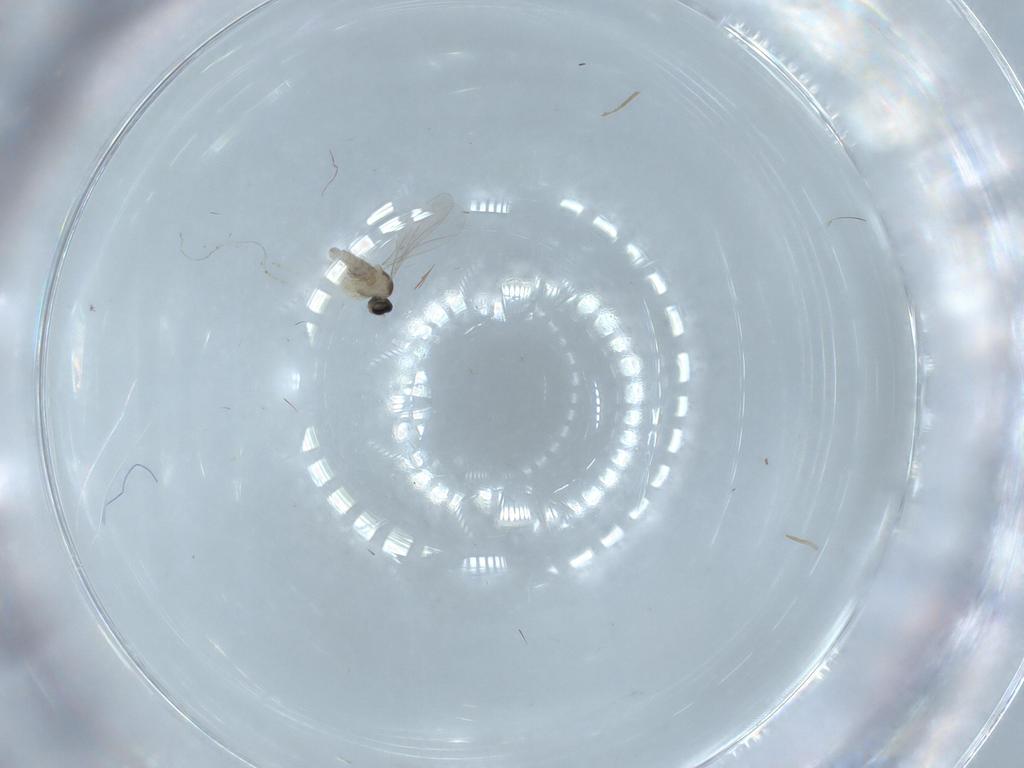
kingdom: Animalia
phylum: Arthropoda
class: Insecta
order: Diptera
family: Cecidomyiidae
